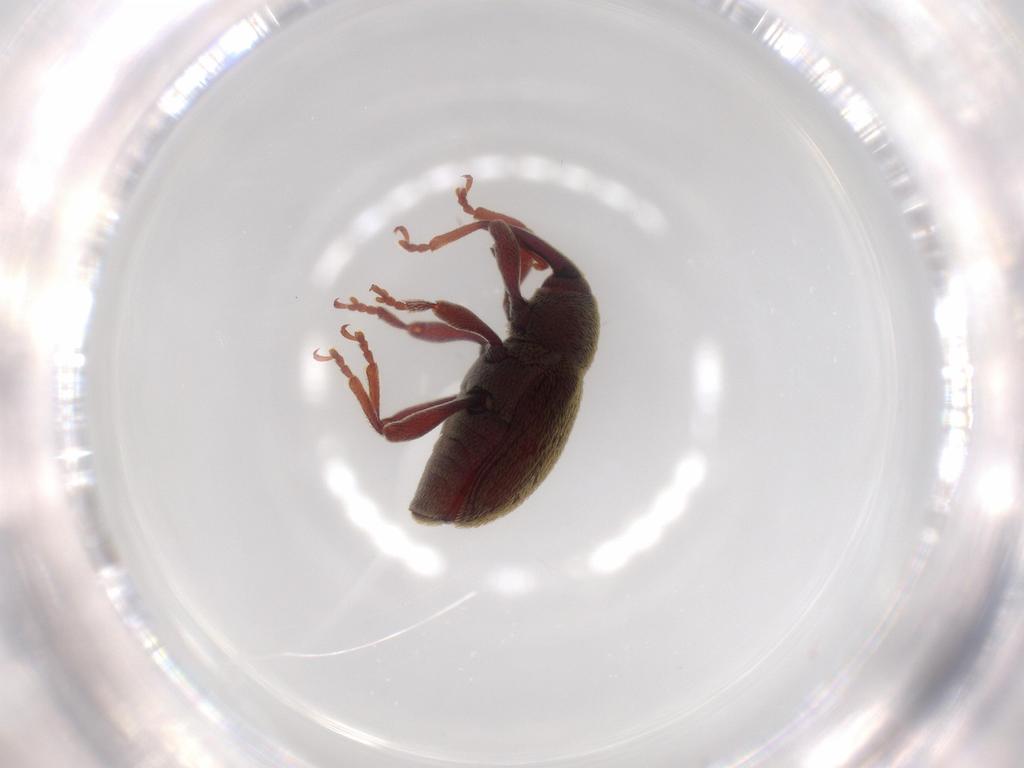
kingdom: Animalia
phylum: Arthropoda
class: Insecta
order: Coleoptera
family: Curculionidae
